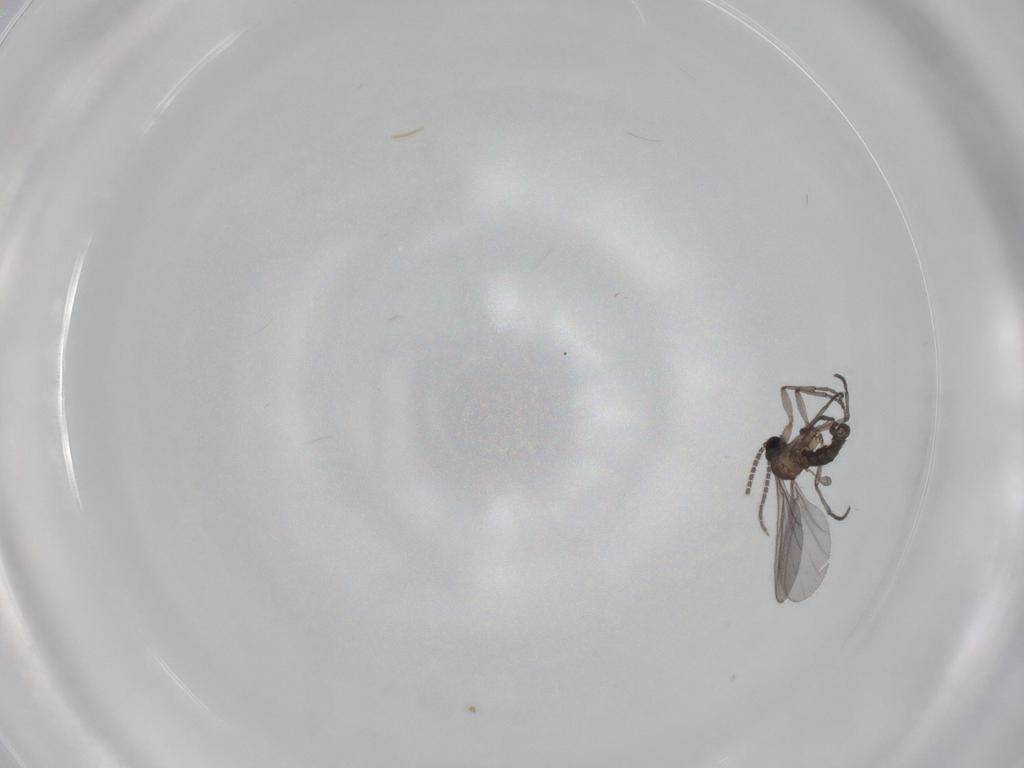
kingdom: Animalia
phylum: Arthropoda
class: Insecta
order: Diptera
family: Sciaridae
